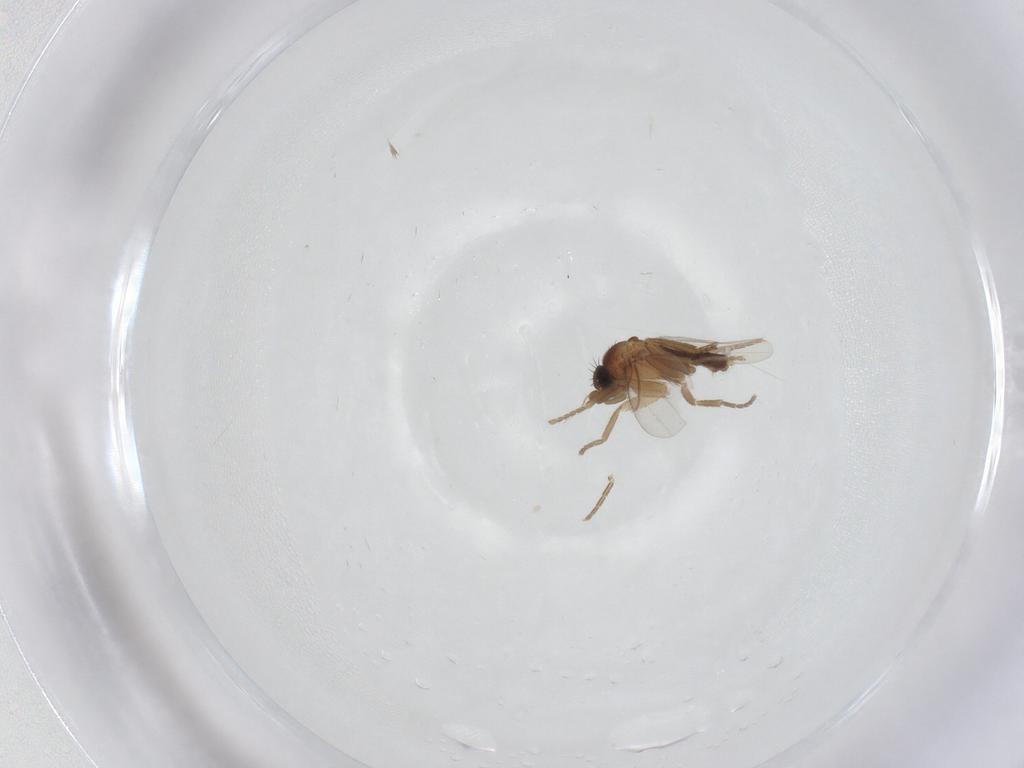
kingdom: Animalia
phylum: Arthropoda
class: Insecta
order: Diptera
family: Phoridae
